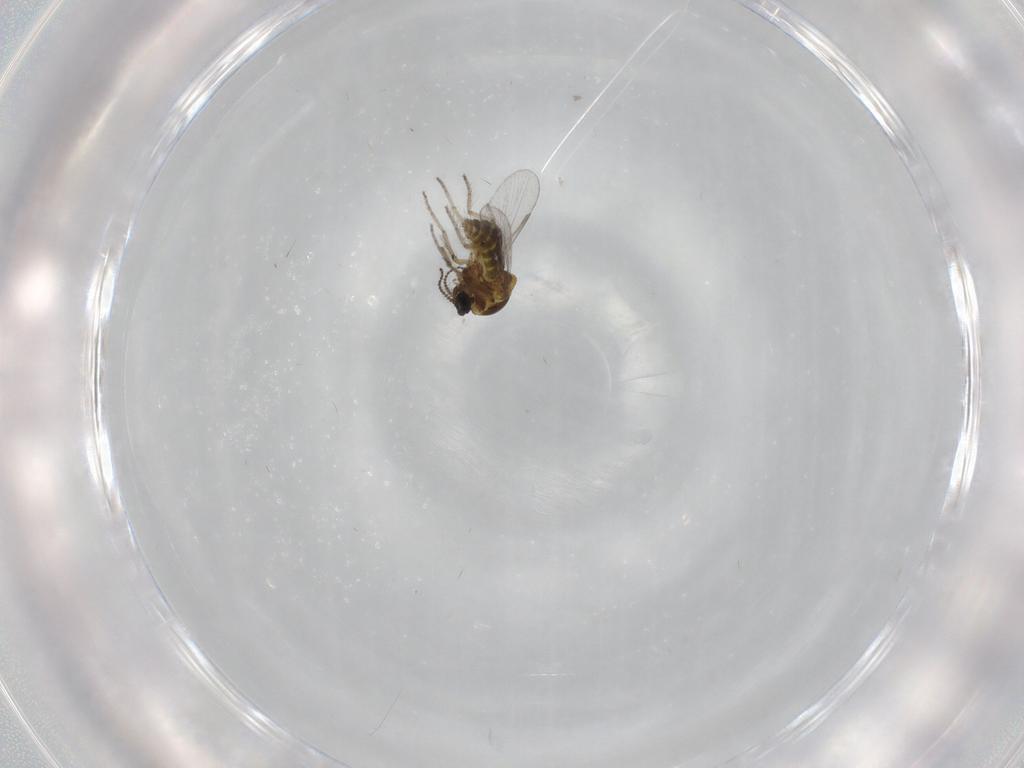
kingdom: Animalia
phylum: Arthropoda
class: Insecta
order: Diptera
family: Ceratopogonidae
